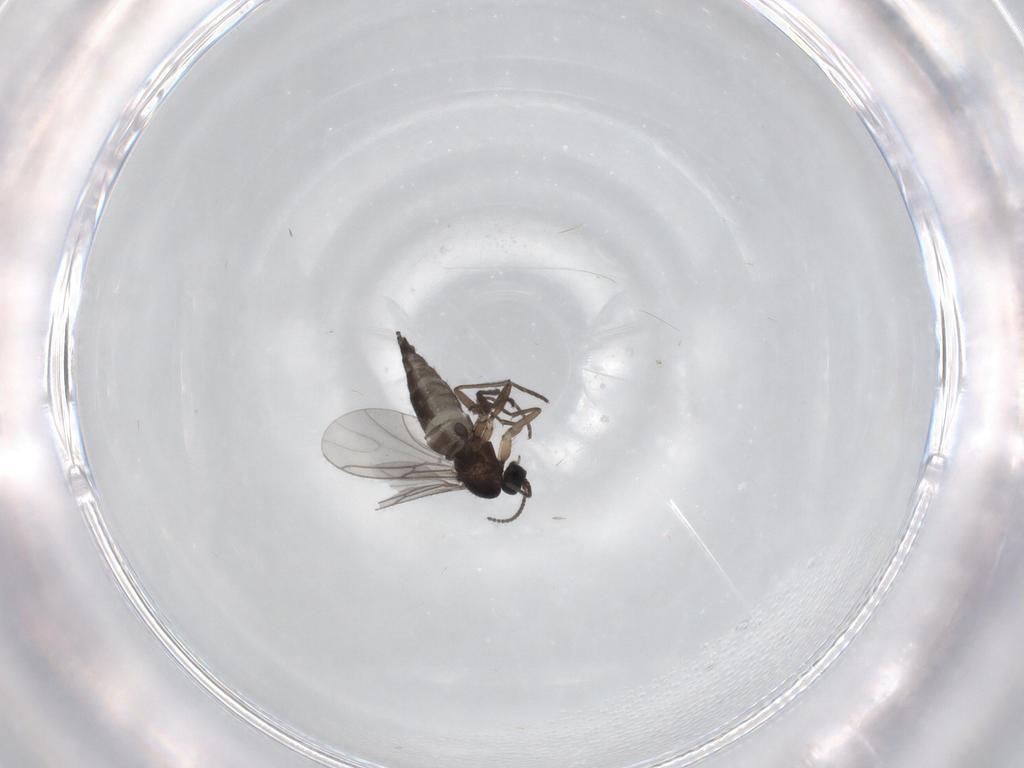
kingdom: Animalia
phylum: Arthropoda
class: Insecta
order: Diptera
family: Sciaridae
